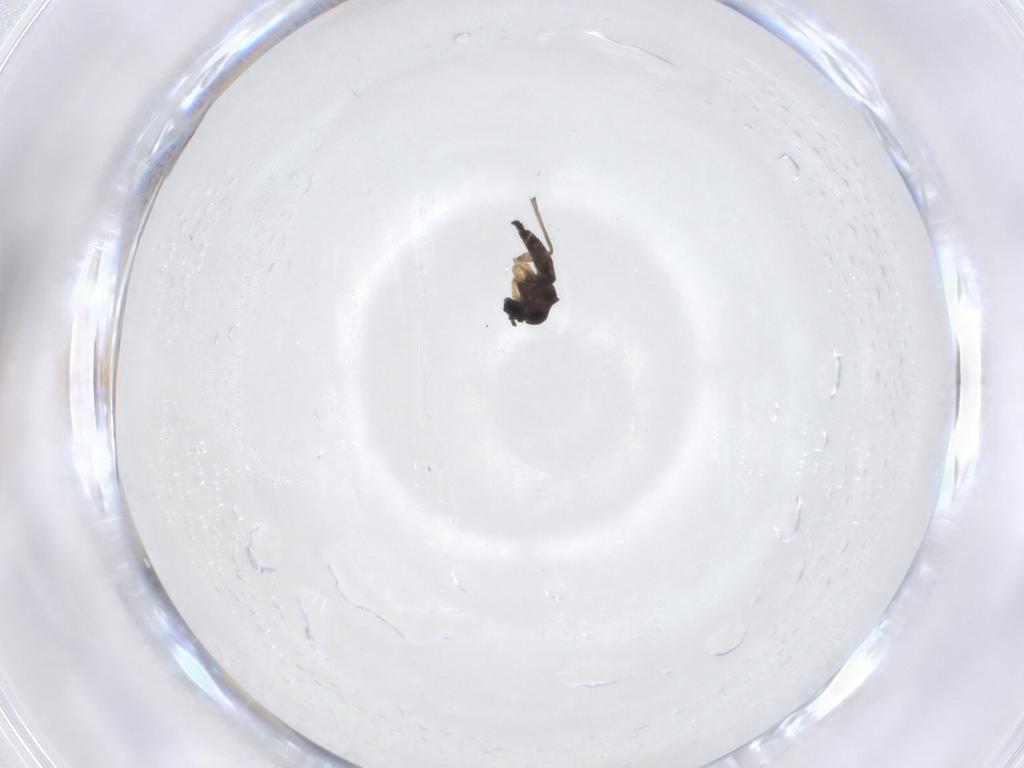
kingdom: Animalia
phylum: Arthropoda
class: Insecta
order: Diptera
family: Sciaridae
